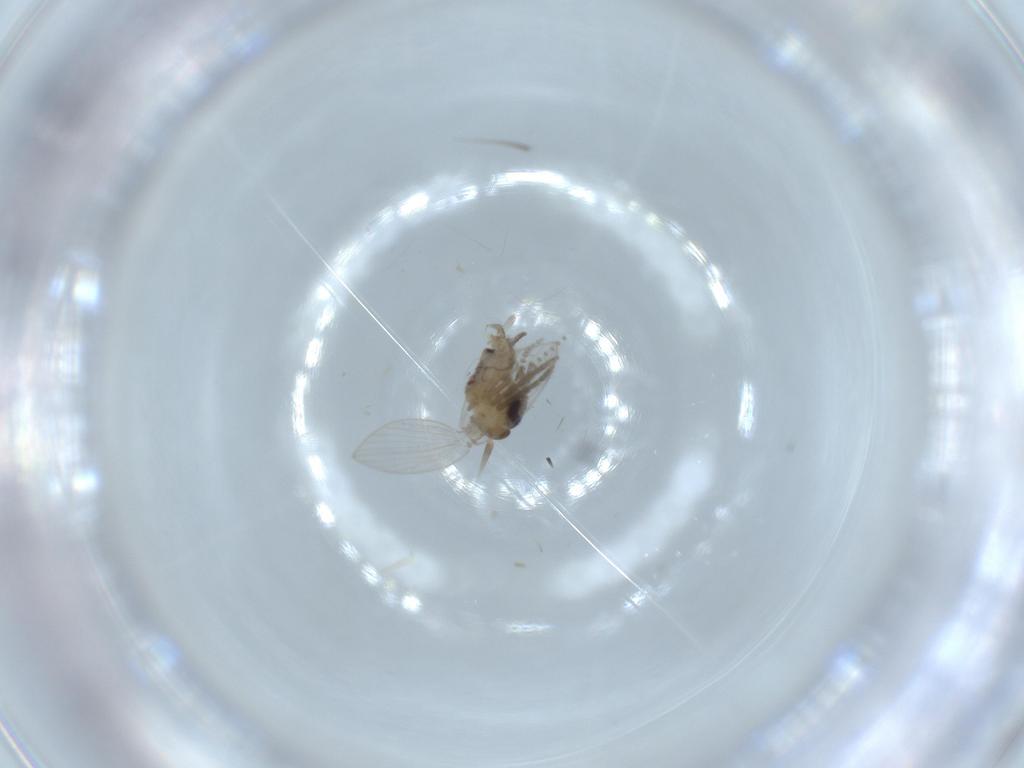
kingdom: Animalia
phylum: Arthropoda
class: Insecta
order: Diptera
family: Psychodidae
